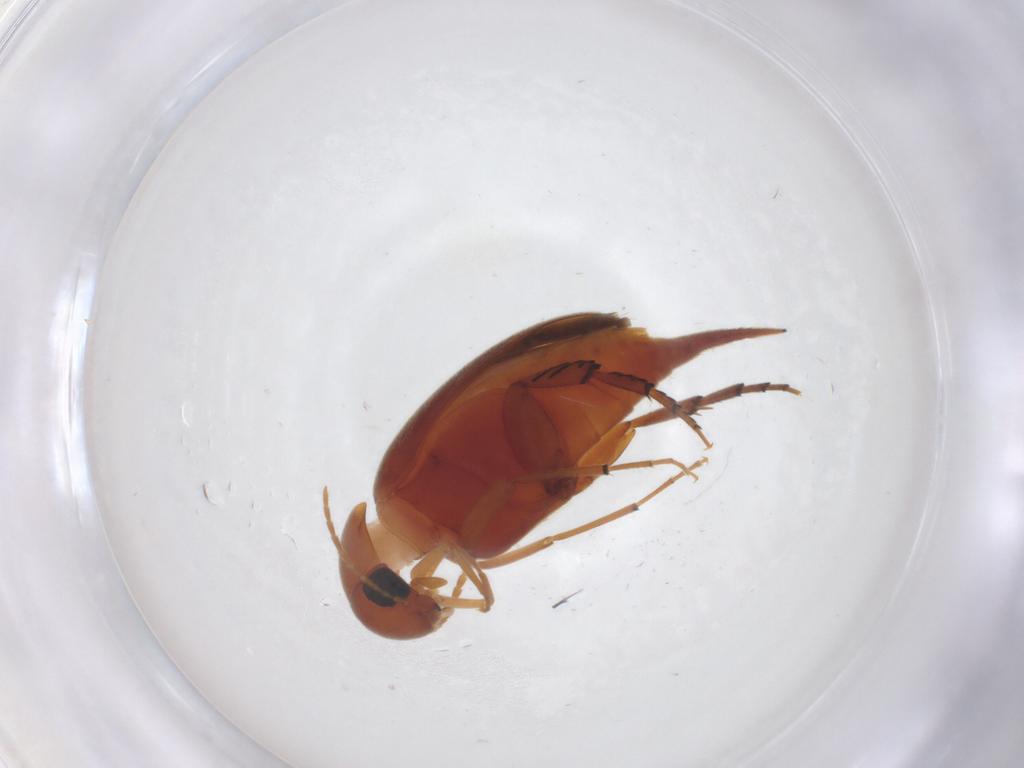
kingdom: Animalia
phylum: Arthropoda
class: Insecta
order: Coleoptera
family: Mordellidae
